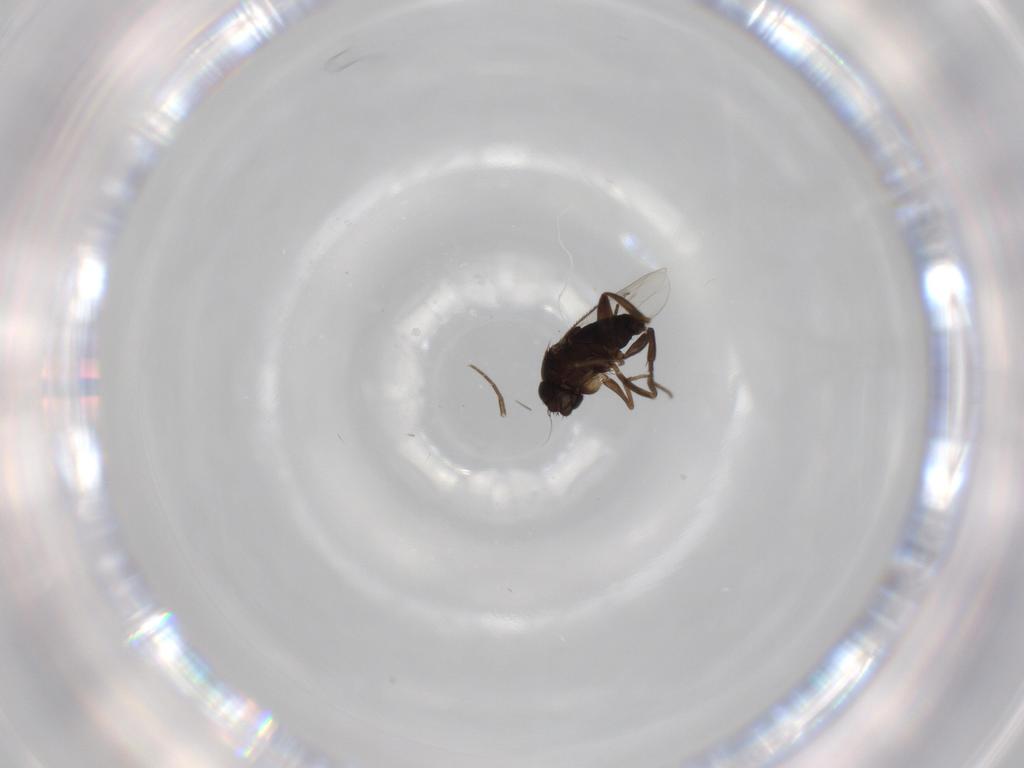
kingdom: Animalia
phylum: Arthropoda
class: Insecta
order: Diptera
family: Phoridae
